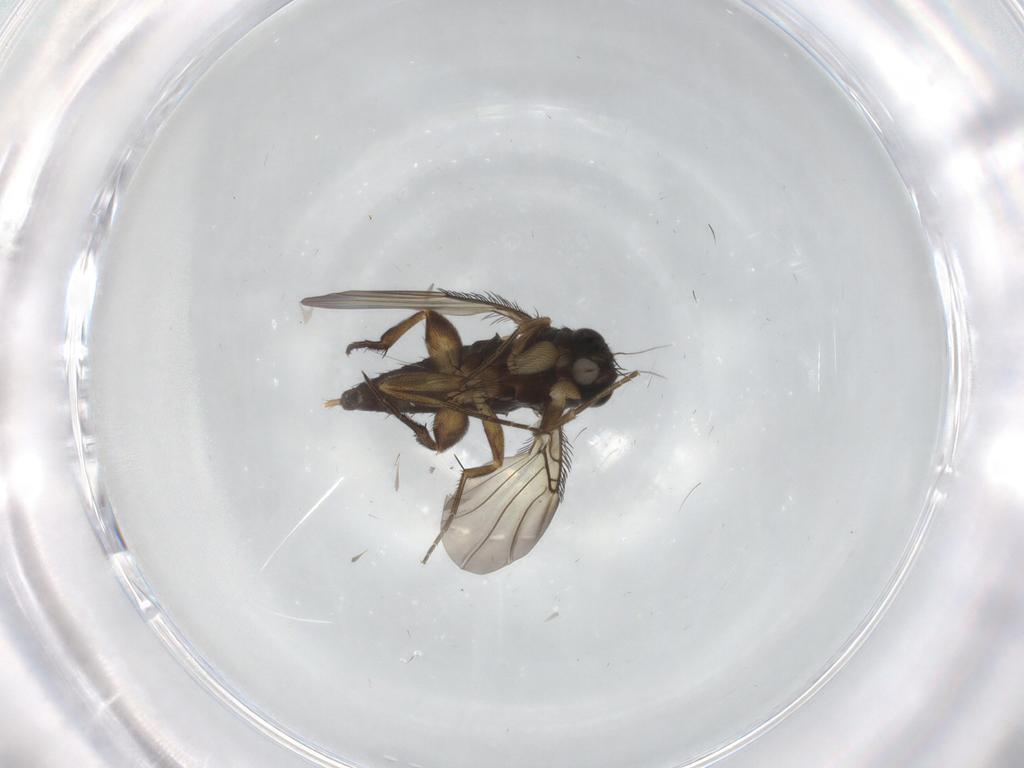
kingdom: Animalia
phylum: Arthropoda
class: Insecta
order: Diptera
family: Phoridae
